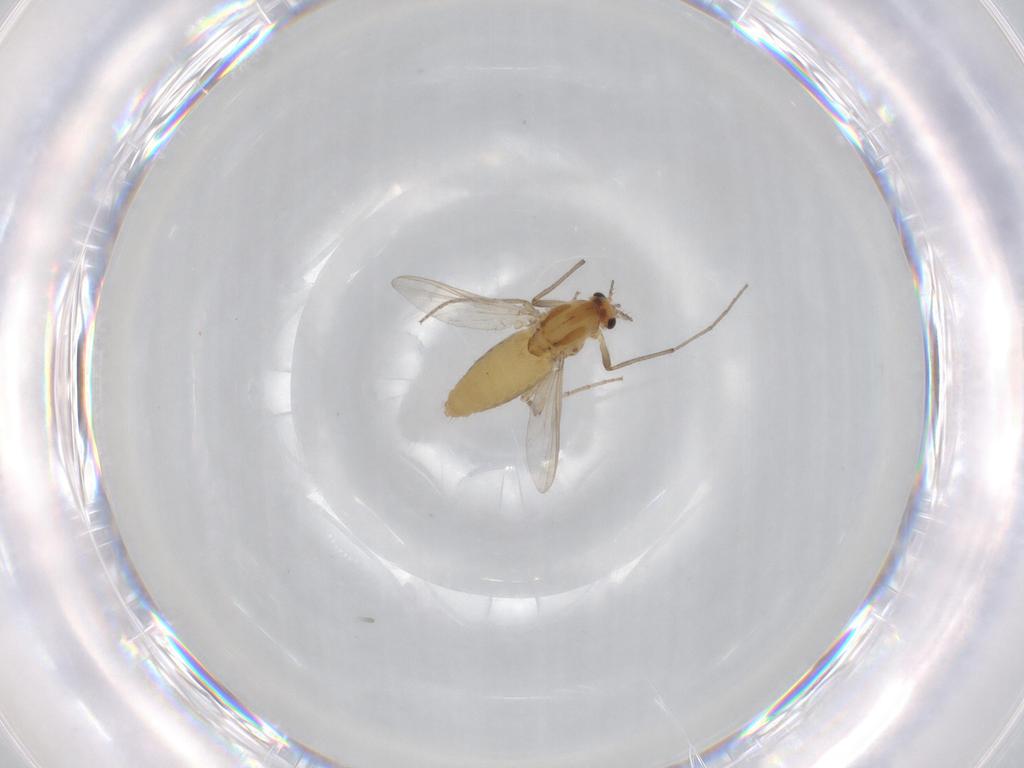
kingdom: Animalia
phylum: Arthropoda
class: Insecta
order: Diptera
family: Chironomidae
